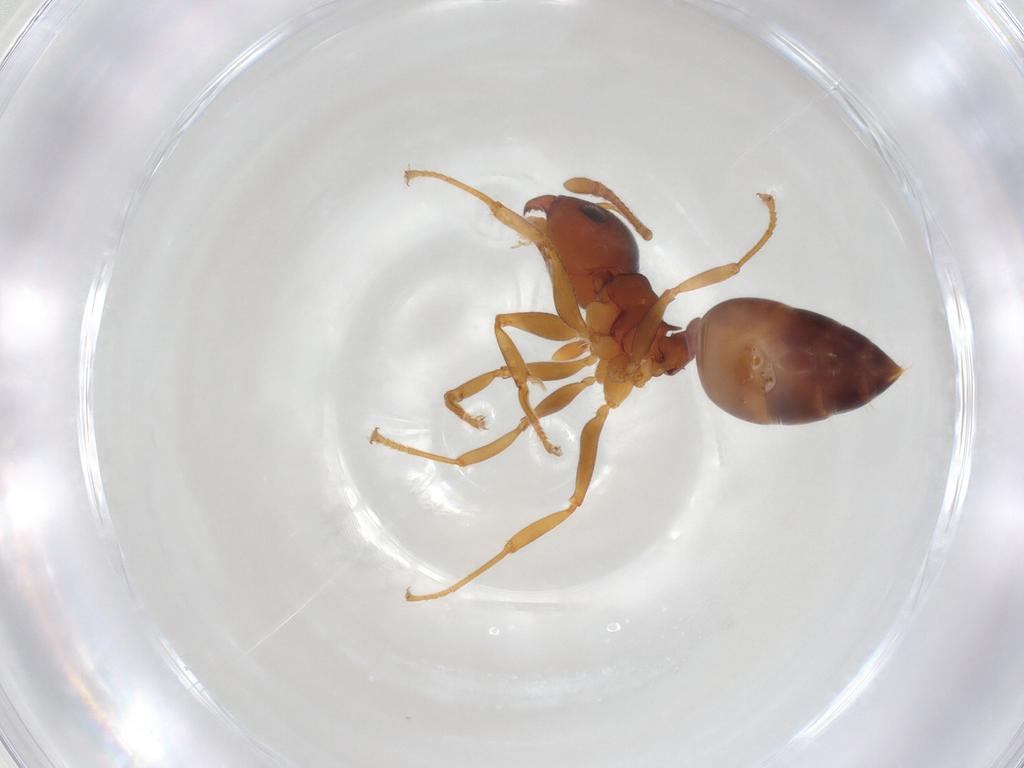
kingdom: Animalia
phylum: Arthropoda
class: Insecta
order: Hymenoptera
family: Formicidae
